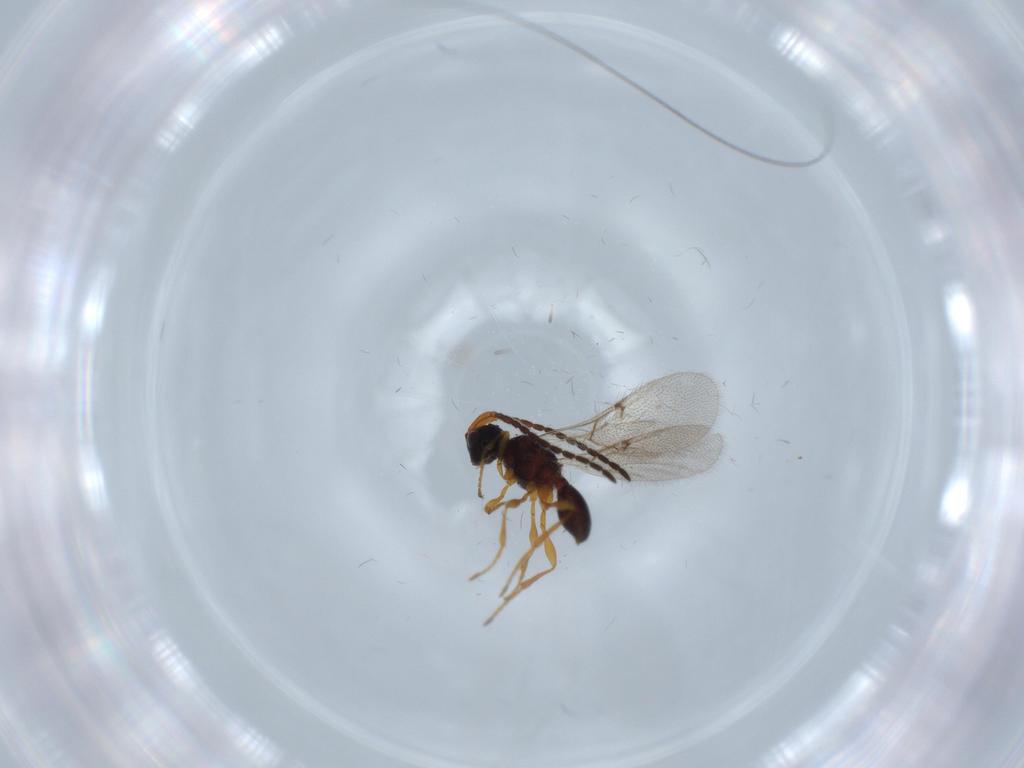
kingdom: Animalia
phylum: Arthropoda
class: Insecta
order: Hymenoptera
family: Diapriidae
